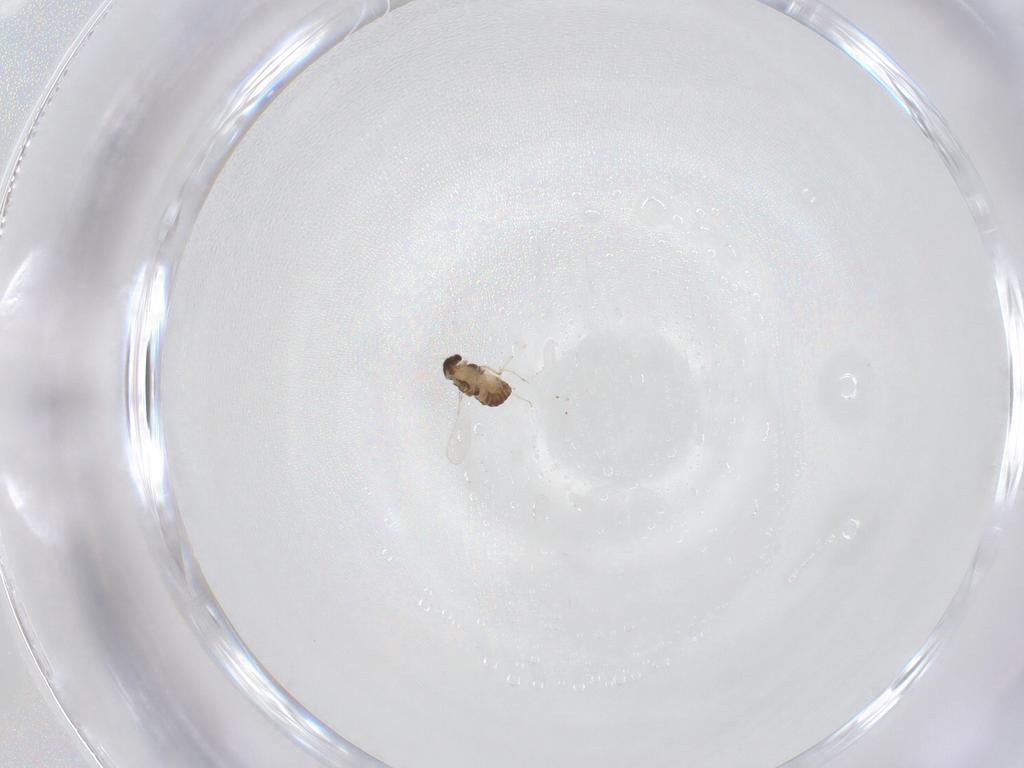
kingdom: Animalia
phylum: Arthropoda
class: Insecta
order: Diptera
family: Chironomidae
